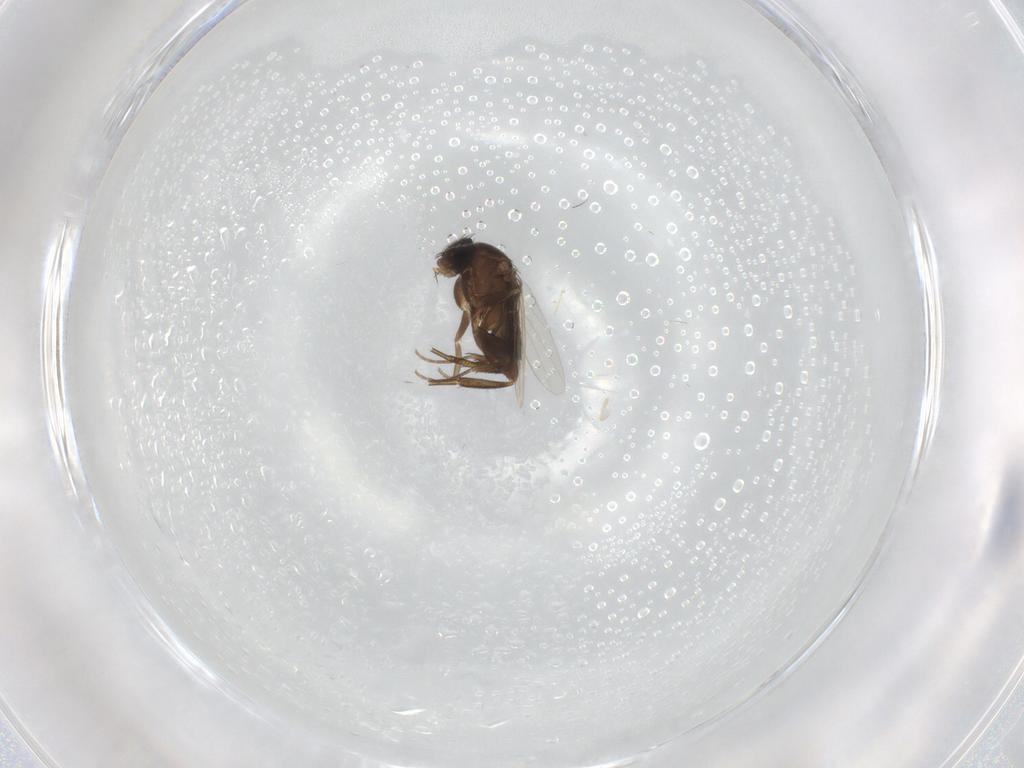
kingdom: Animalia
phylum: Arthropoda
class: Insecta
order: Diptera
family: Phoridae
